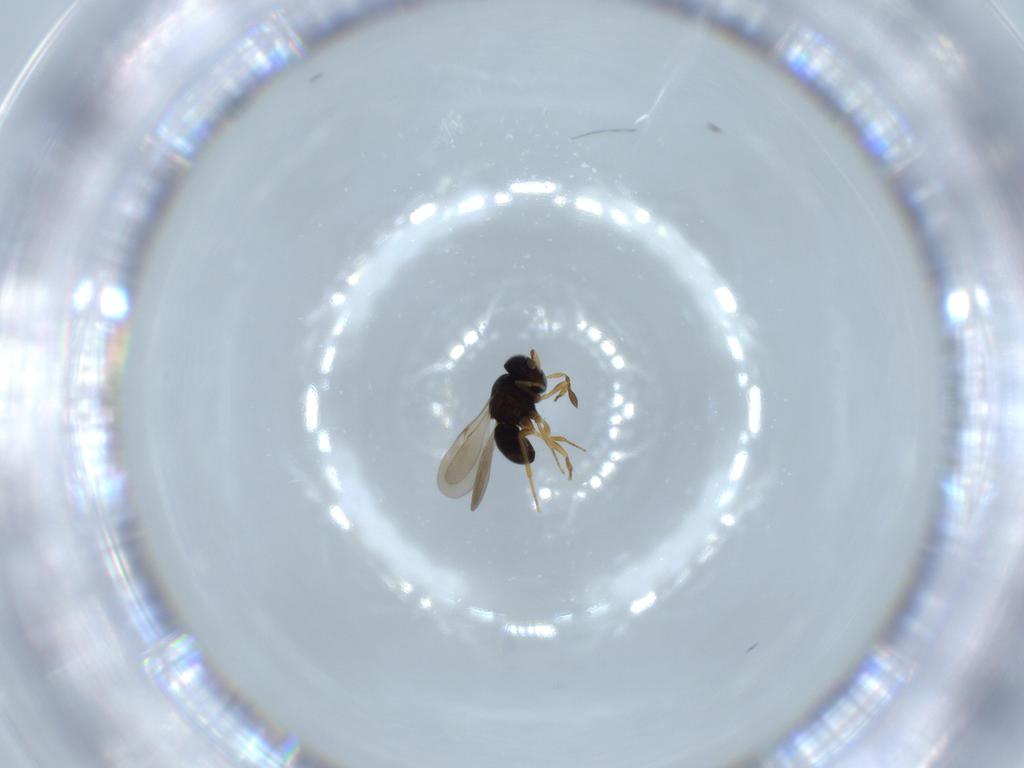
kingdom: Animalia
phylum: Arthropoda
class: Insecta
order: Hymenoptera
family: Scelionidae
